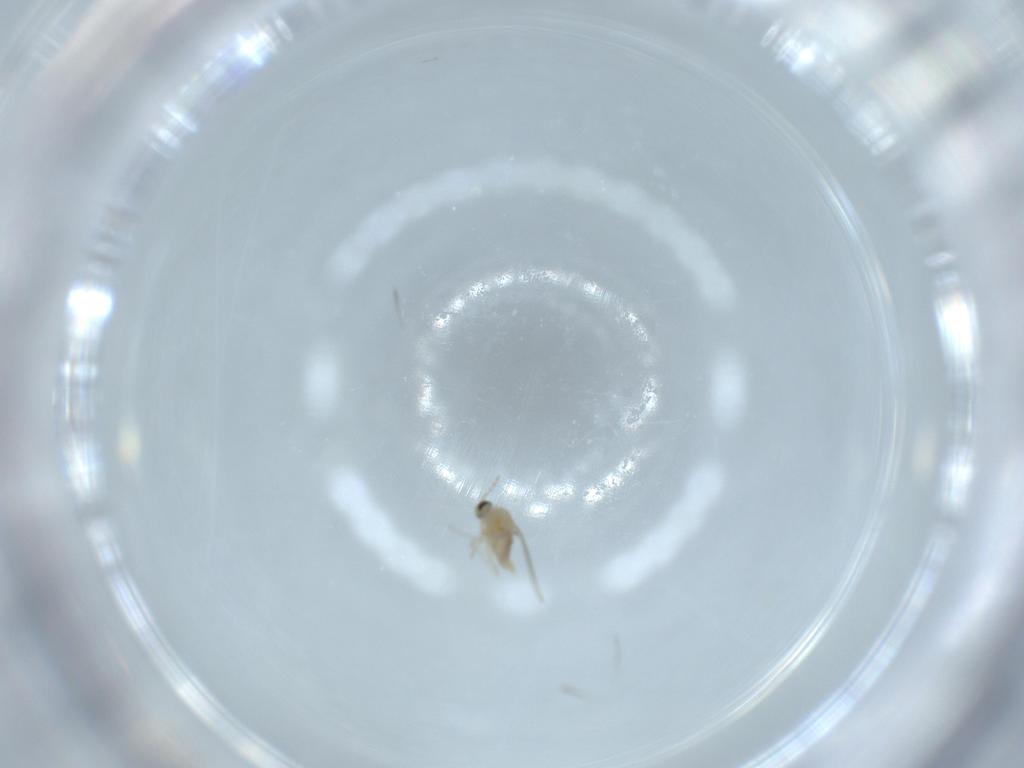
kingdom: Animalia
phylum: Arthropoda
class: Insecta
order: Diptera
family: Cecidomyiidae
